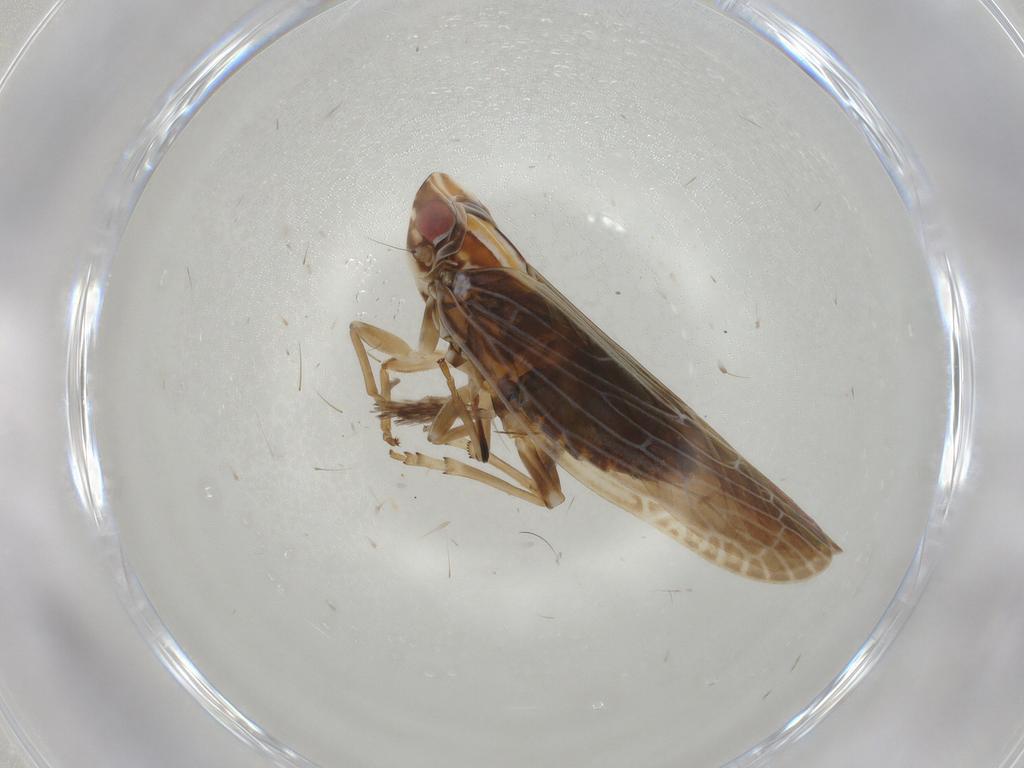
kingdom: Animalia
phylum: Arthropoda
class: Insecta
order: Hemiptera
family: Achilidae
